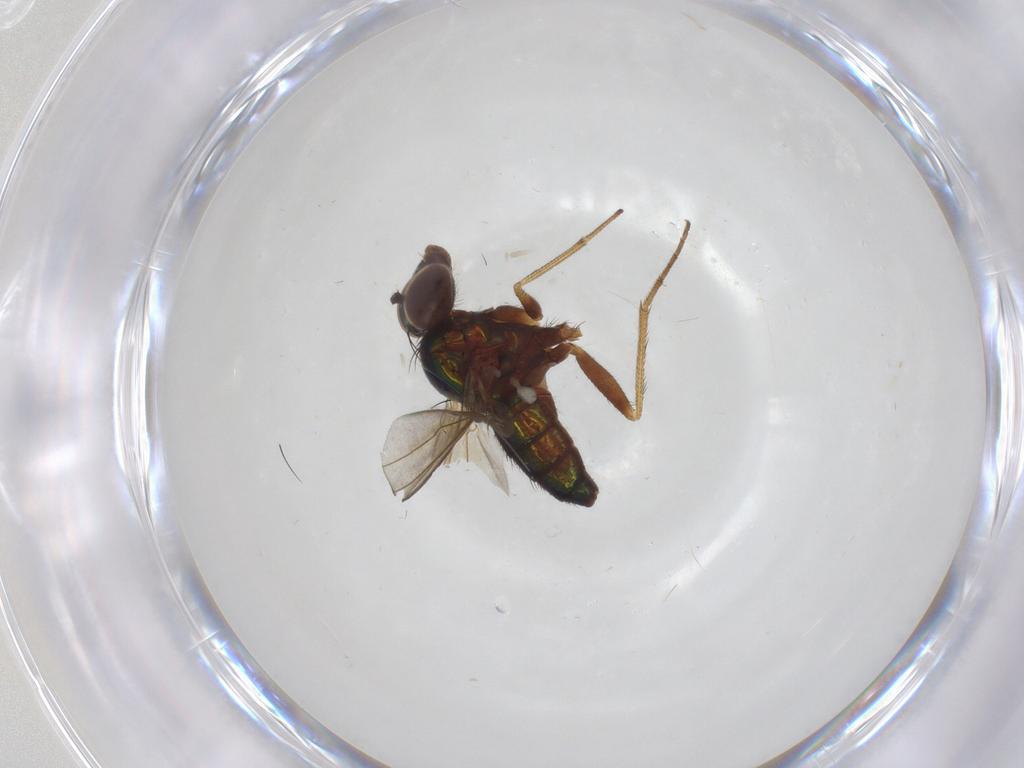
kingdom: Animalia
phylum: Arthropoda
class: Insecta
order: Diptera
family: Dolichopodidae
